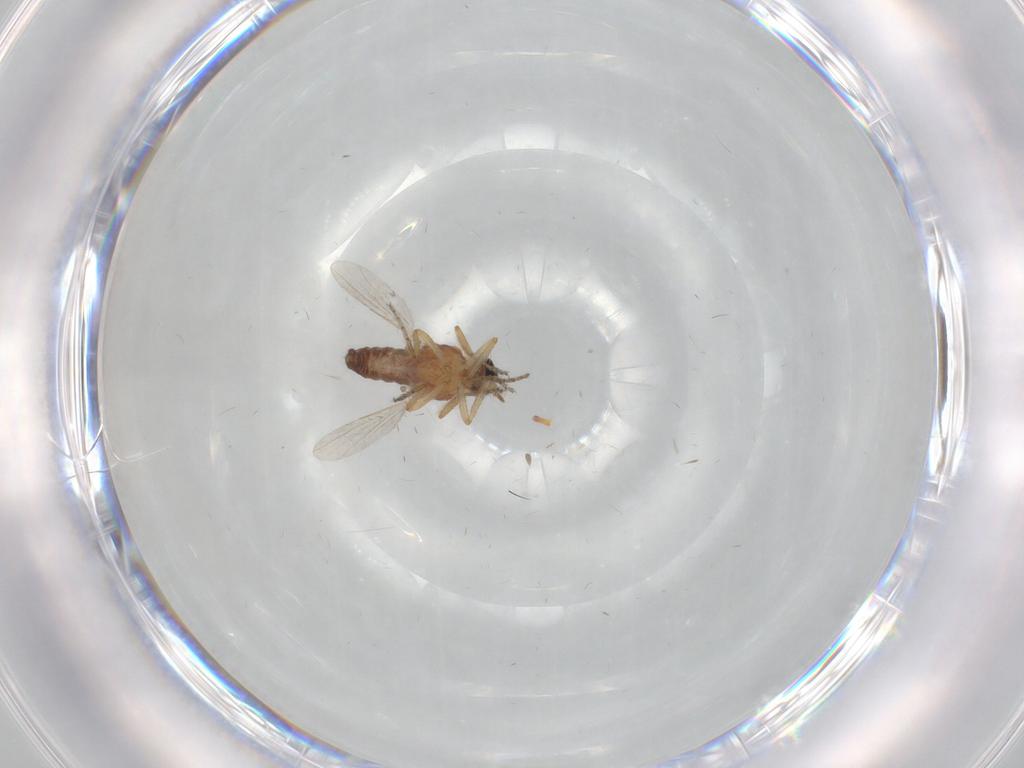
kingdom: Animalia
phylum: Arthropoda
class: Insecta
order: Diptera
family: Ceratopogonidae
